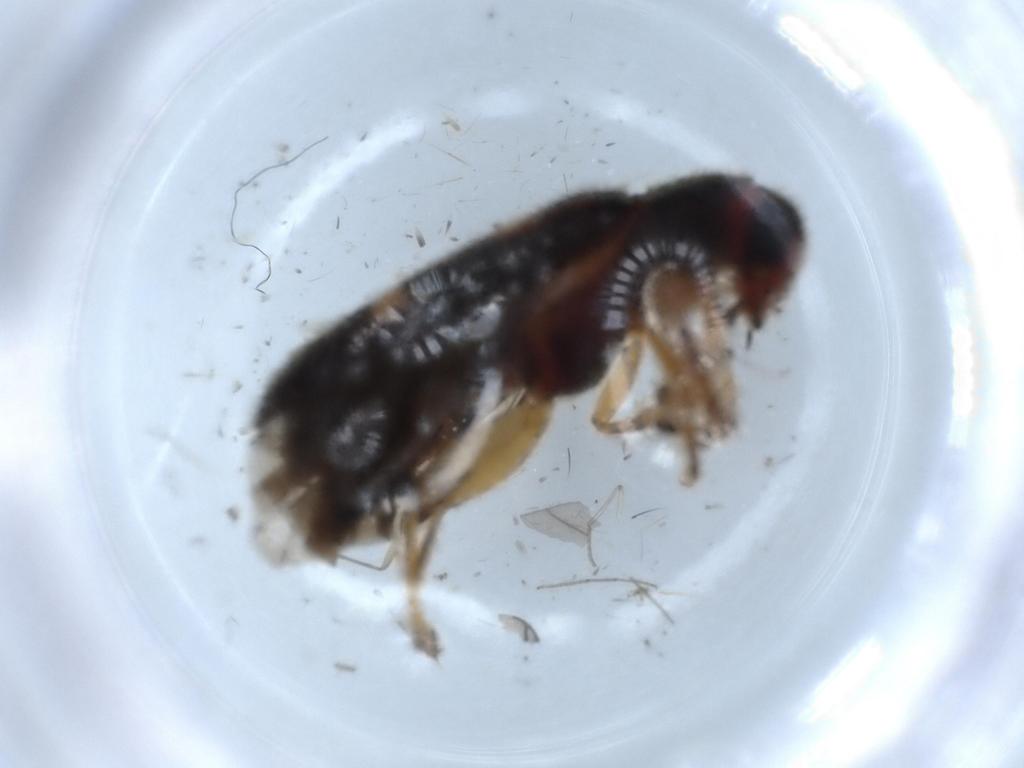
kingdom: Animalia
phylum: Arthropoda
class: Insecta
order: Coleoptera
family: Cleridae
